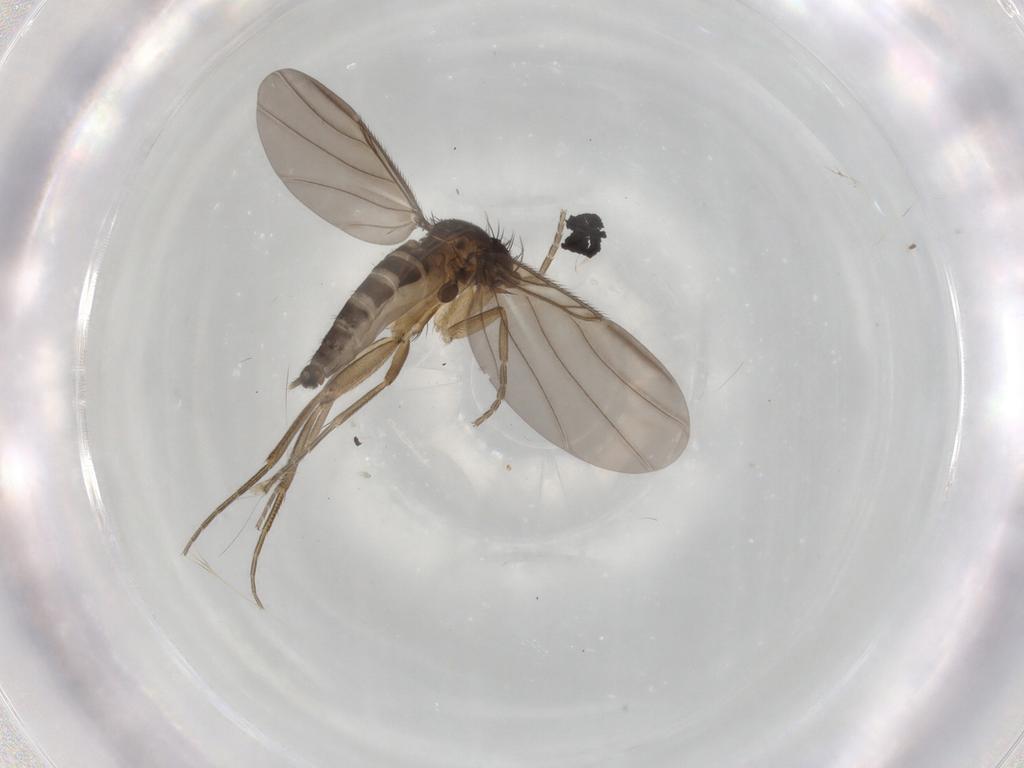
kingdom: Animalia
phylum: Arthropoda
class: Insecta
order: Diptera
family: Phoridae
